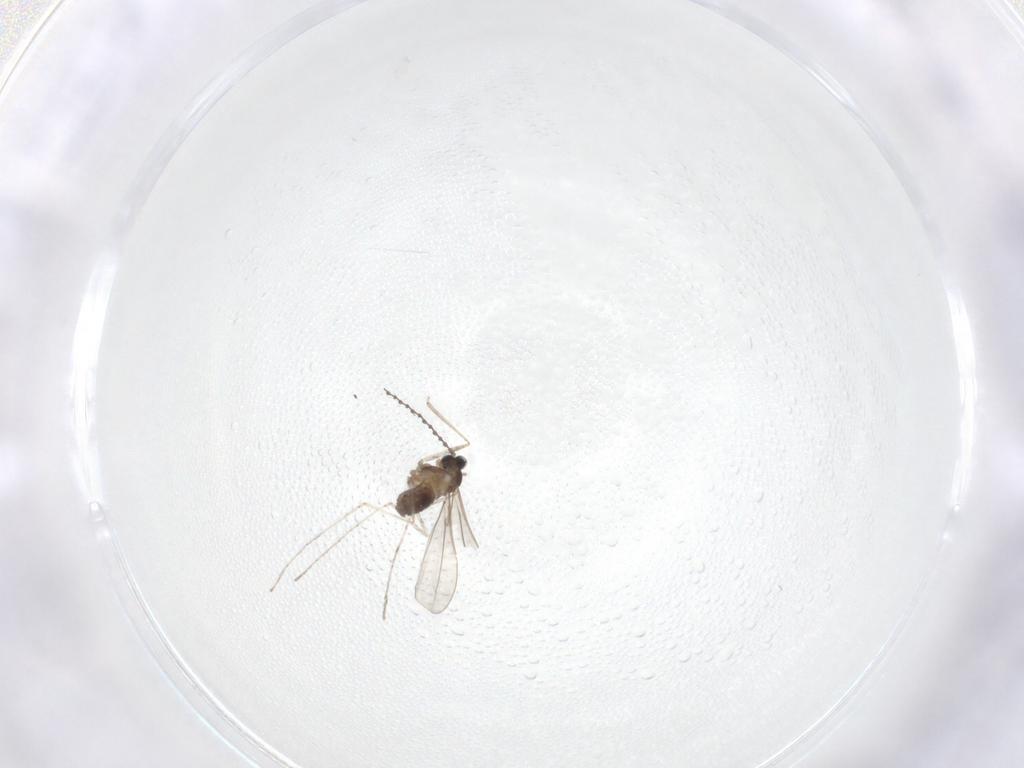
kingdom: Animalia
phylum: Arthropoda
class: Insecta
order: Diptera
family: Cecidomyiidae
